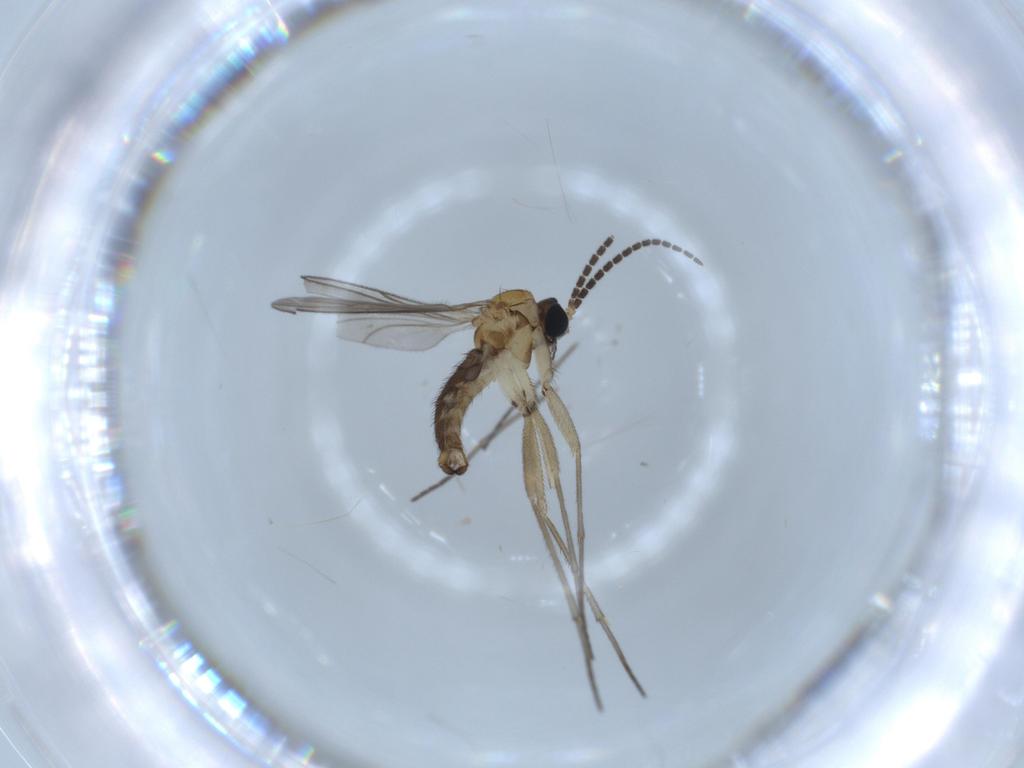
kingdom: Animalia
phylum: Arthropoda
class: Insecta
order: Diptera
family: Sciaridae
